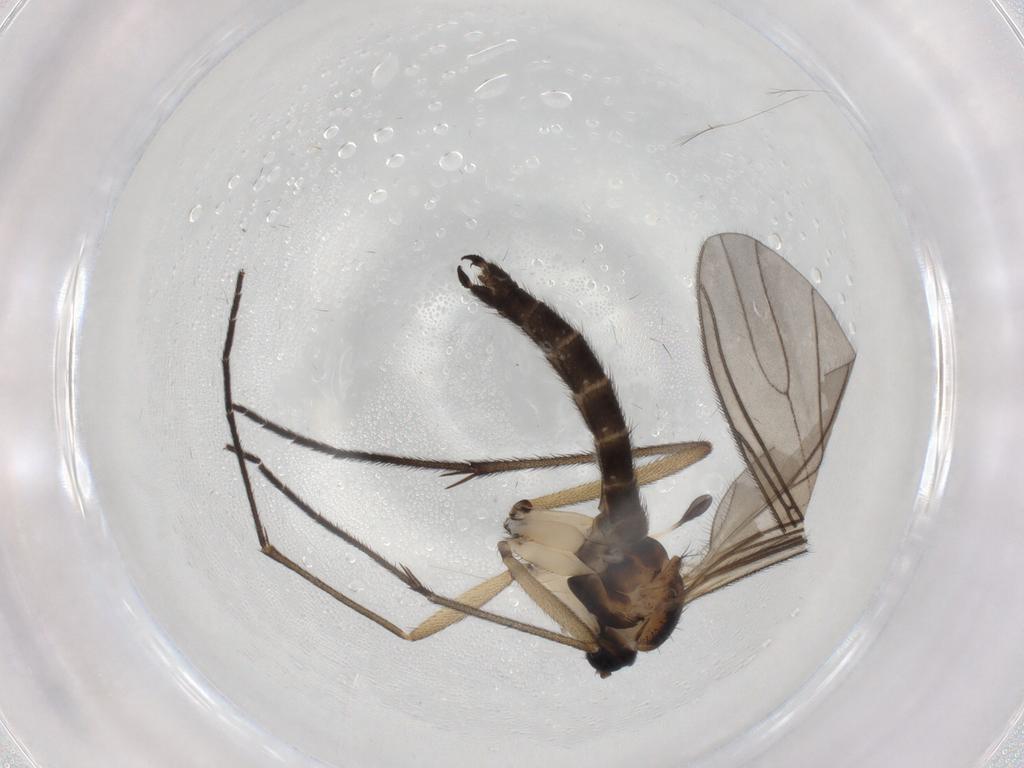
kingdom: Animalia
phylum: Arthropoda
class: Insecta
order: Diptera
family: Sciaridae
